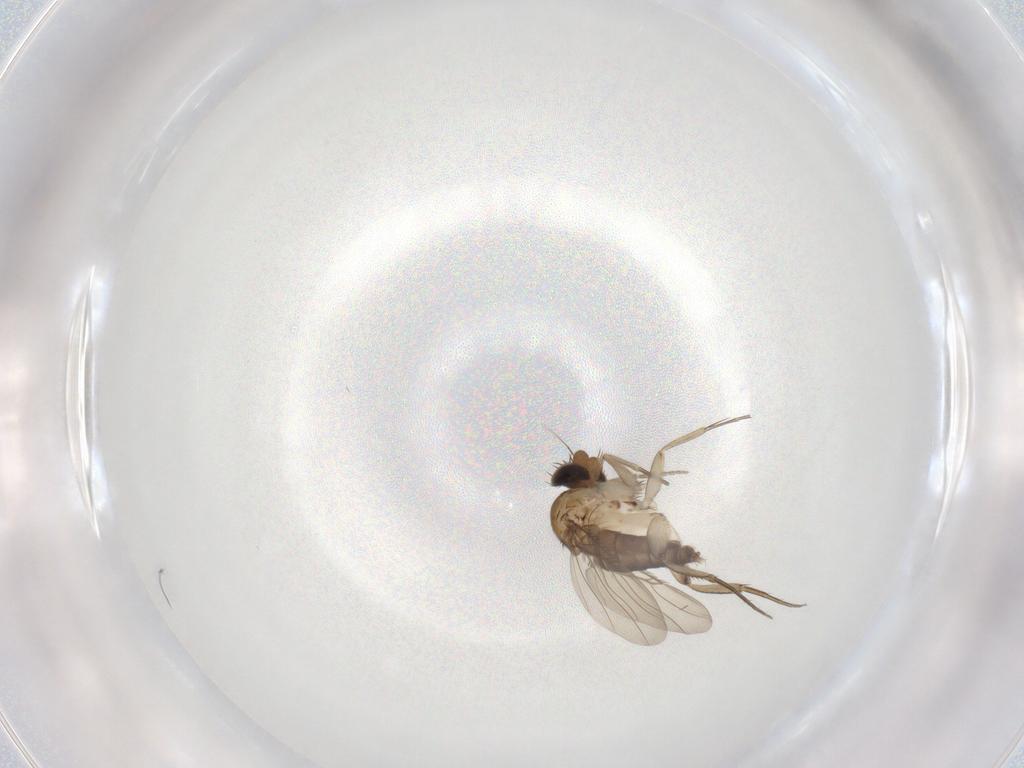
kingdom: Animalia
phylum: Arthropoda
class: Insecta
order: Diptera
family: Phoridae
